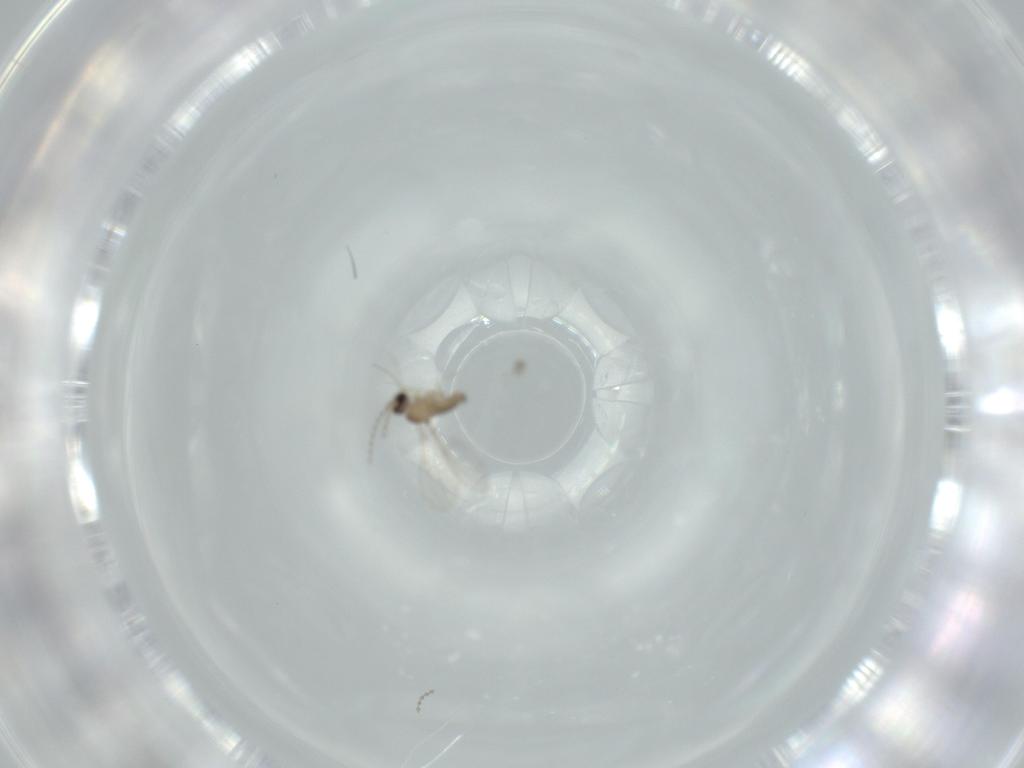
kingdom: Animalia
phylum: Arthropoda
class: Insecta
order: Diptera
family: Cecidomyiidae
